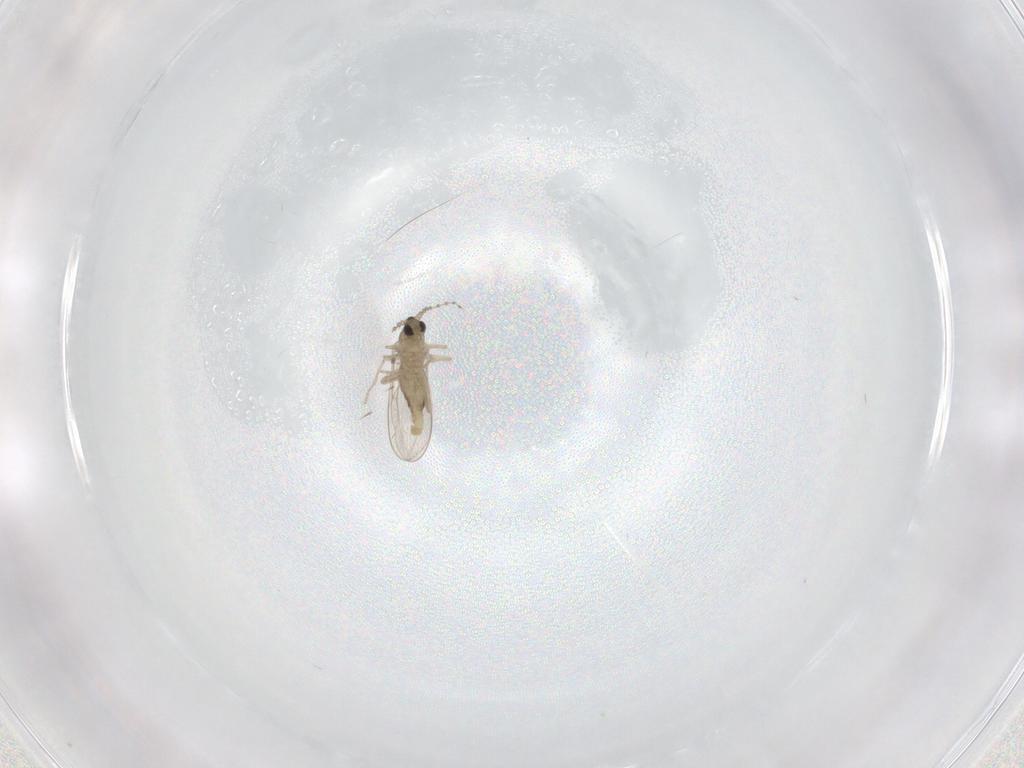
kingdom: Animalia
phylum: Arthropoda
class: Insecta
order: Diptera
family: Cecidomyiidae
